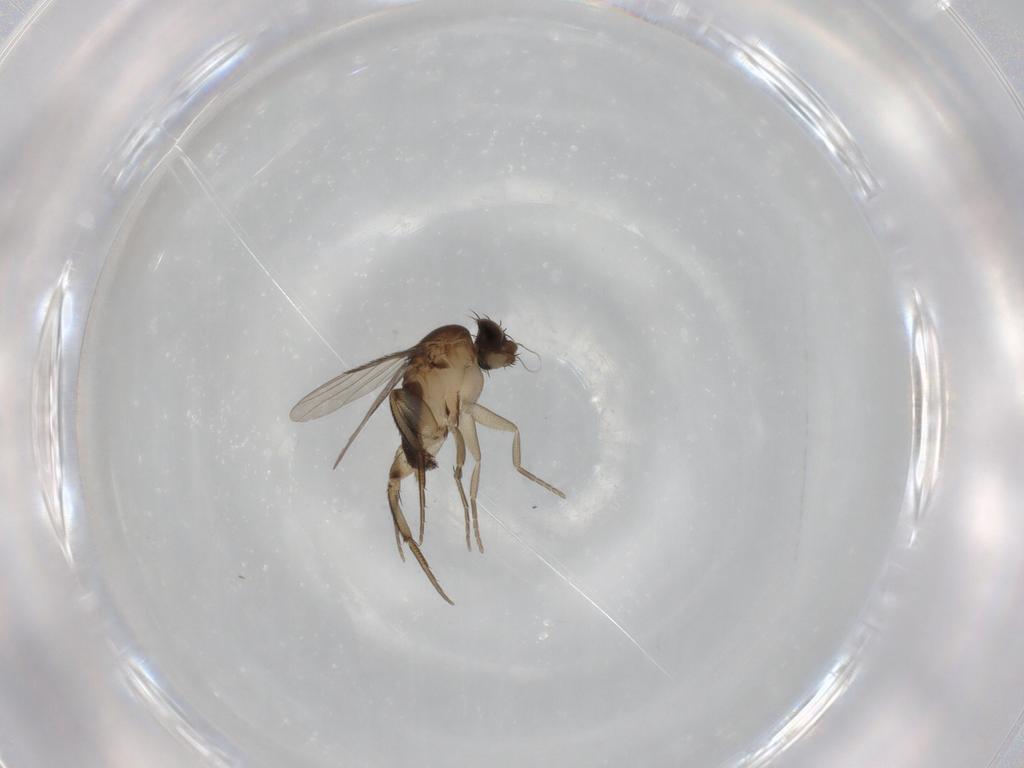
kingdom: Animalia
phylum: Arthropoda
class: Insecta
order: Diptera
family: Phoridae
